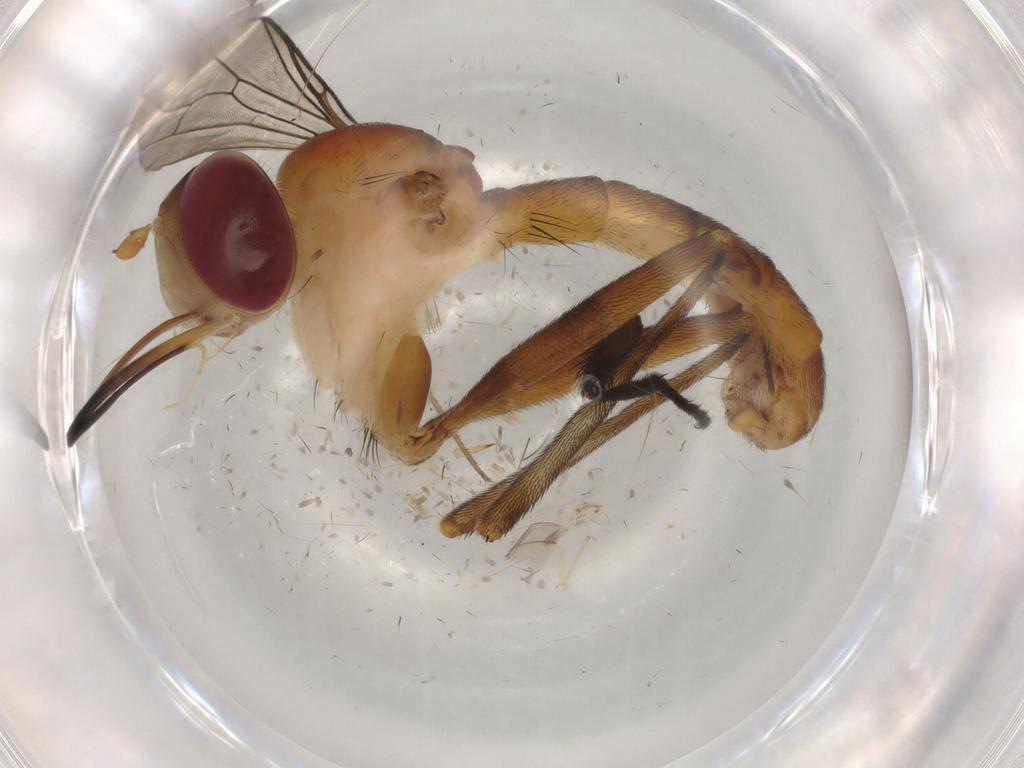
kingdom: Animalia
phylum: Arthropoda
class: Insecta
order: Diptera
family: Conopidae
